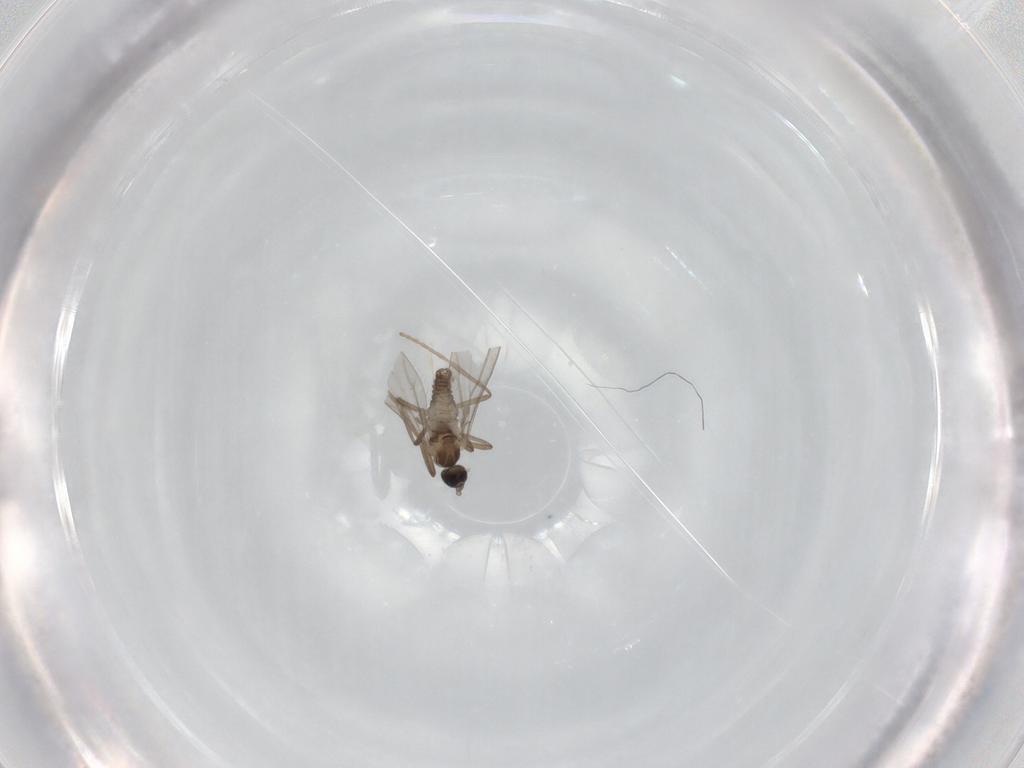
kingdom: Animalia
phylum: Arthropoda
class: Insecta
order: Diptera
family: Cecidomyiidae
